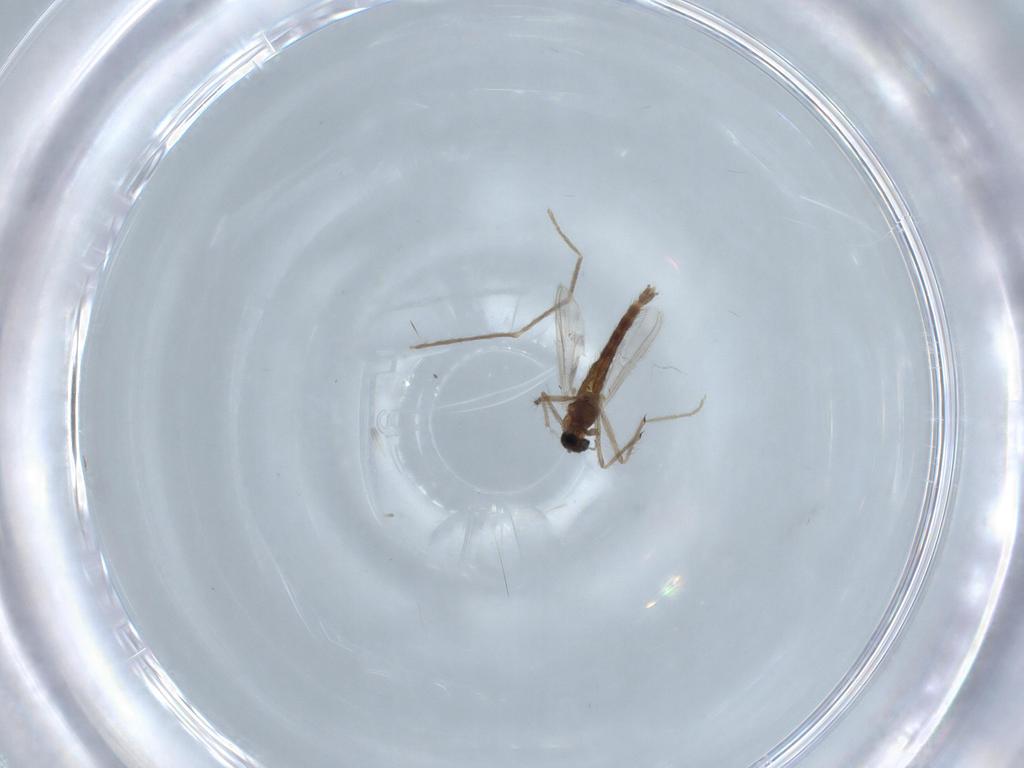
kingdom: Animalia
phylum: Arthropoda
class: Insecta
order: Diptera
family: Chironomidae
